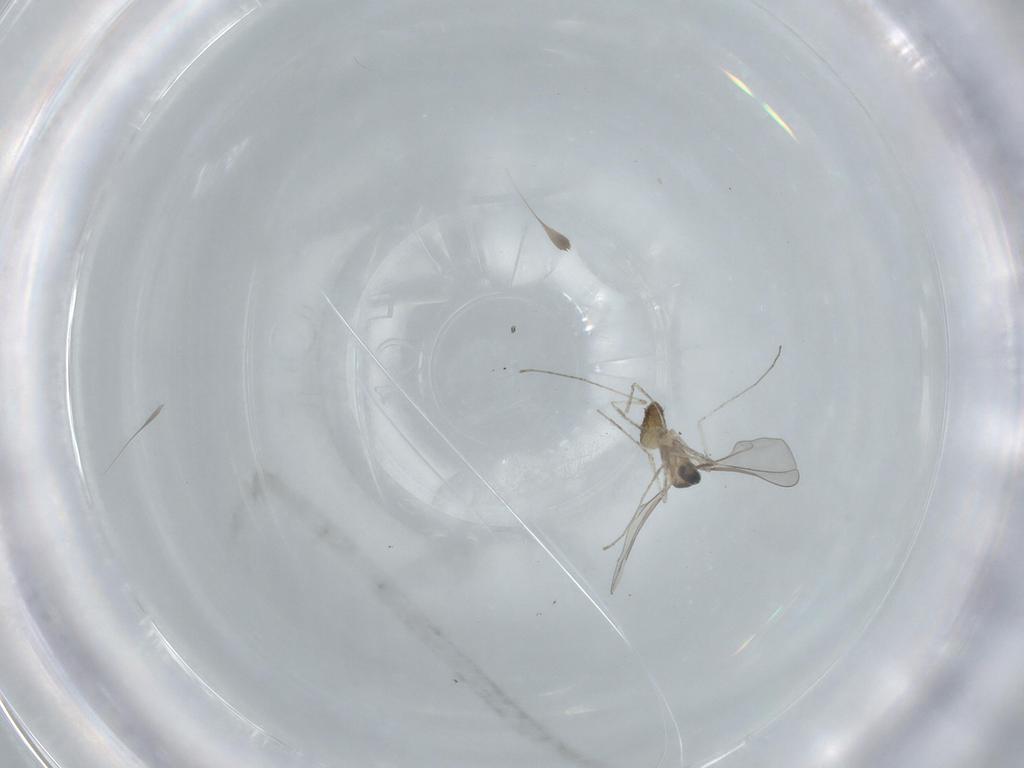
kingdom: Animalia
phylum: Arthropoda
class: Insecta
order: Diptera
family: Cecidomyiidae
